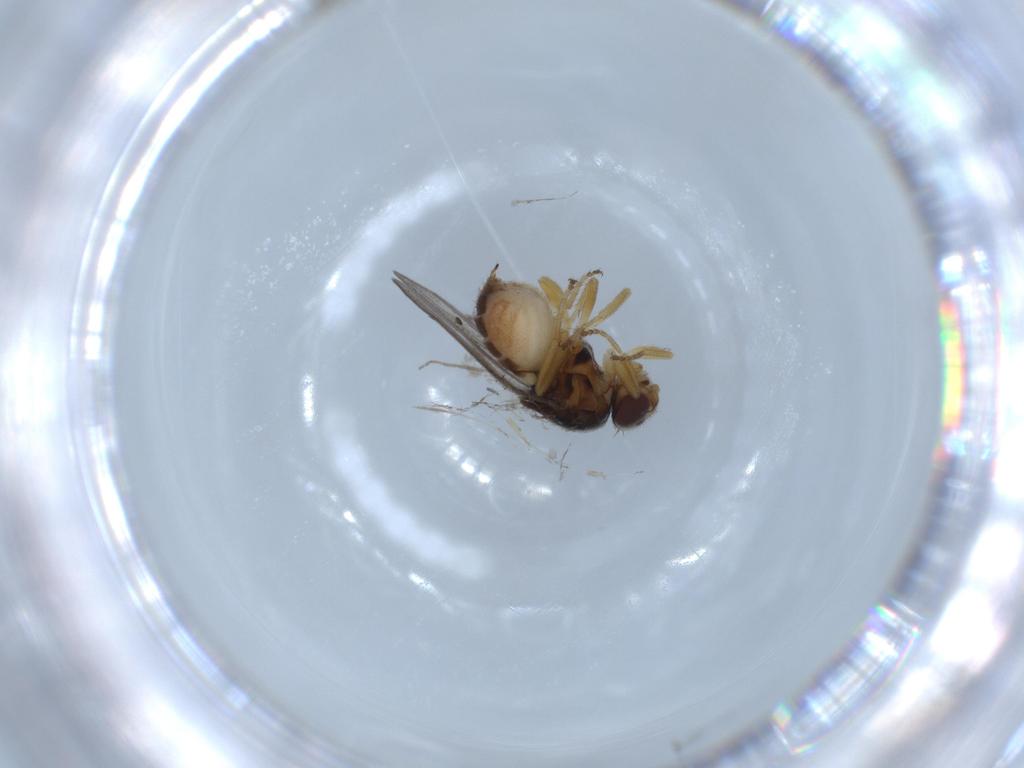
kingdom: Animalia
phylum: Arthropoda
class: Insecta
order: Diptera
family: Chloropidae
